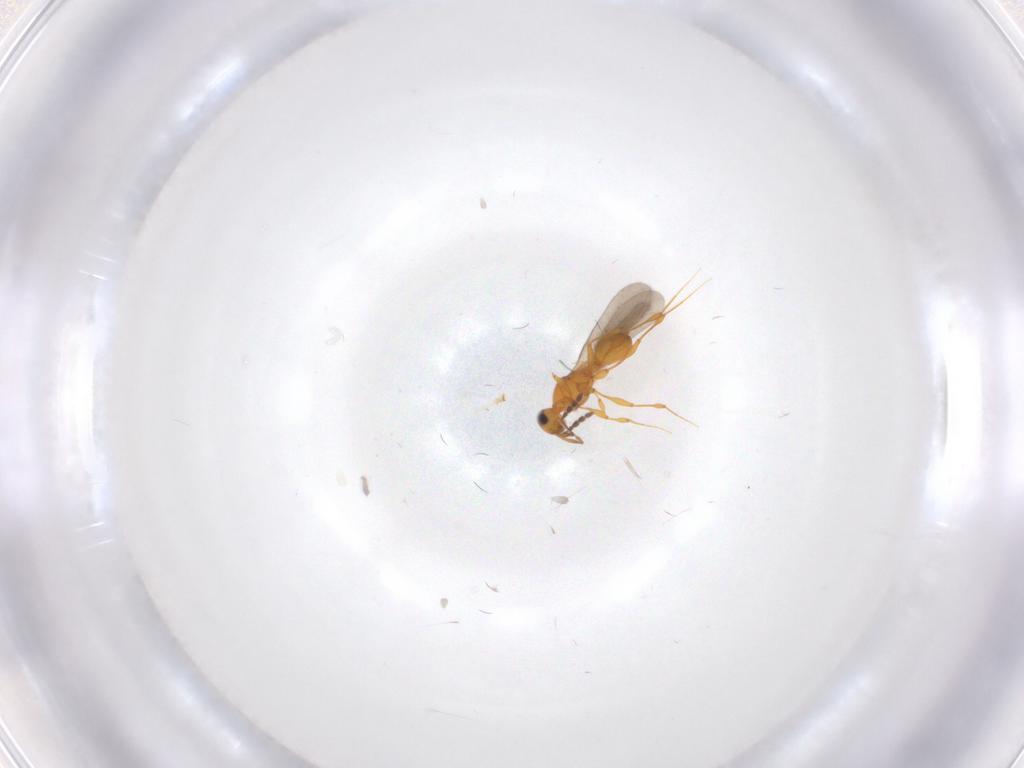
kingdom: Animalia
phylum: Arthropoda
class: Insecta
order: Hymenoptera
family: Platygastridae
